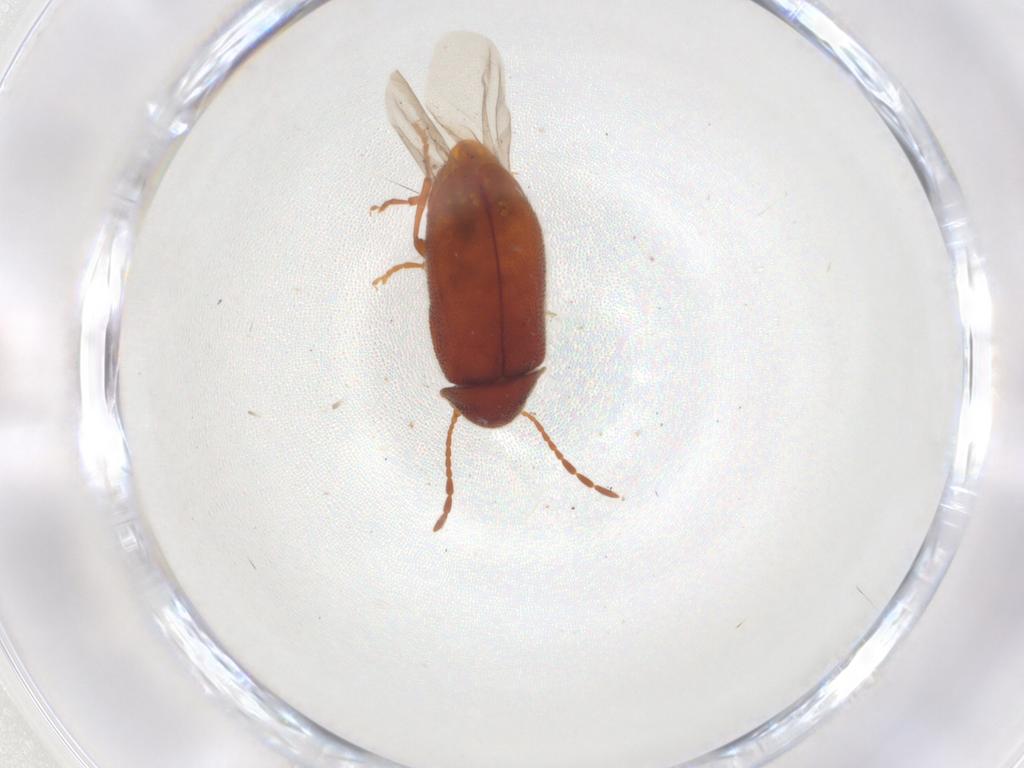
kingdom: Animalia
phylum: Arthropoda
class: Insecta
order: Coleoptera
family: Ptinidae
